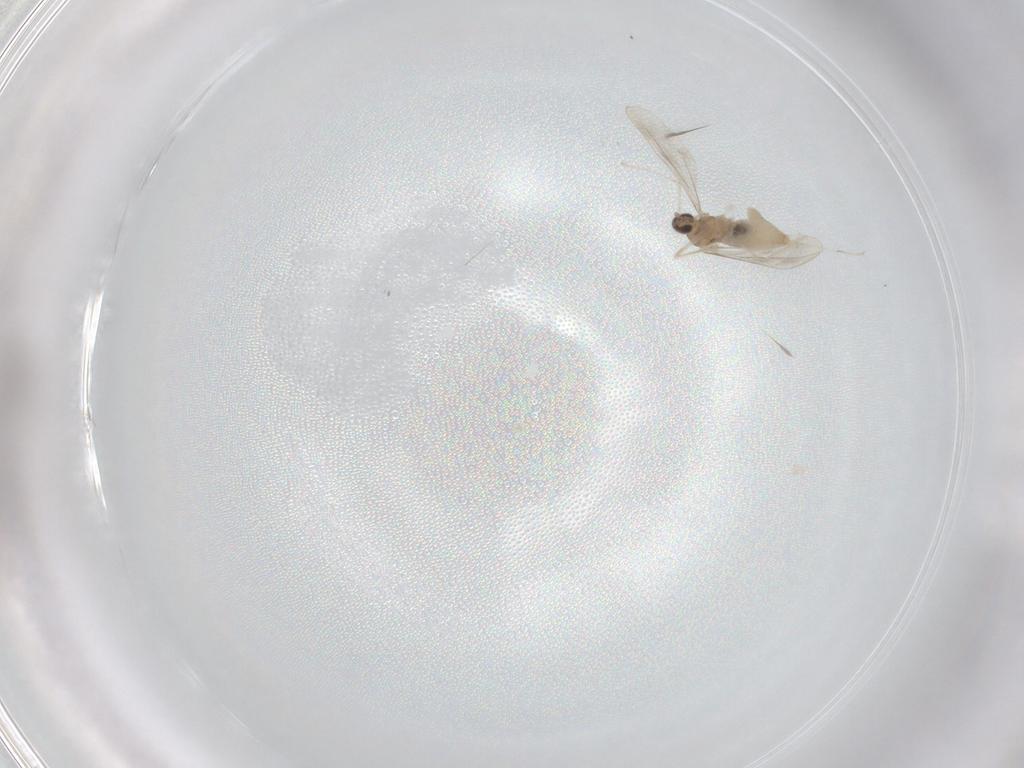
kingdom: Animalia
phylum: Arthropoda
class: Insecta
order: Diptera
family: Cecidomyiidae
